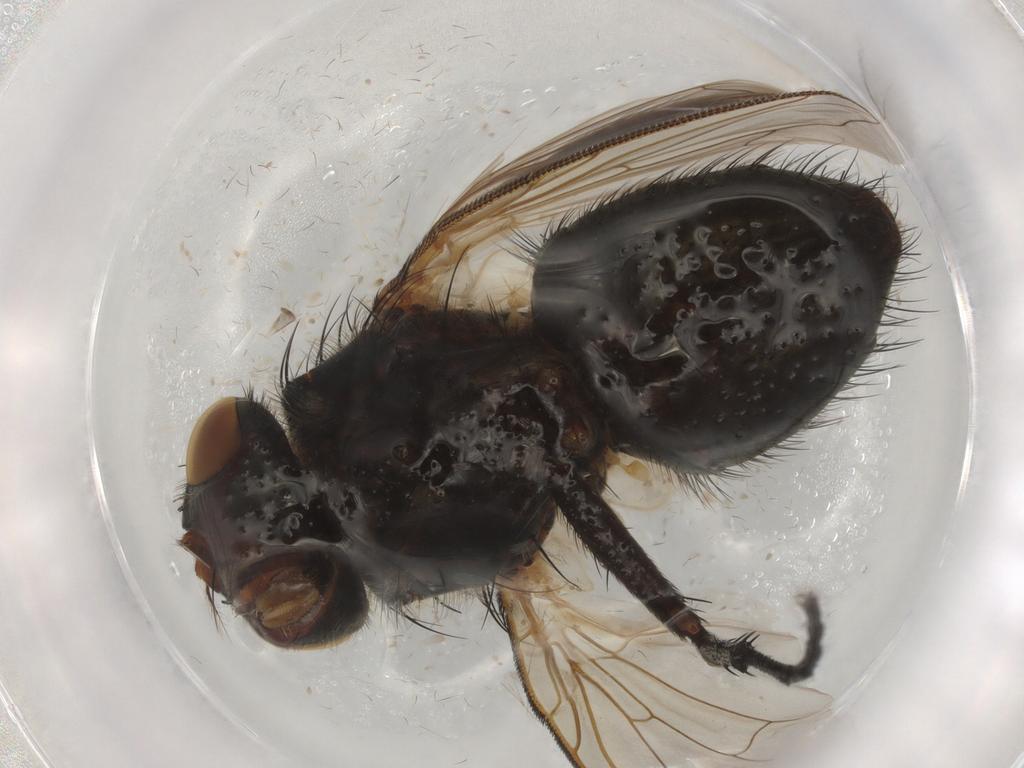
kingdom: Animalia
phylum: Arthropoda
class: Insecta
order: Diptera
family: Polleniidae
